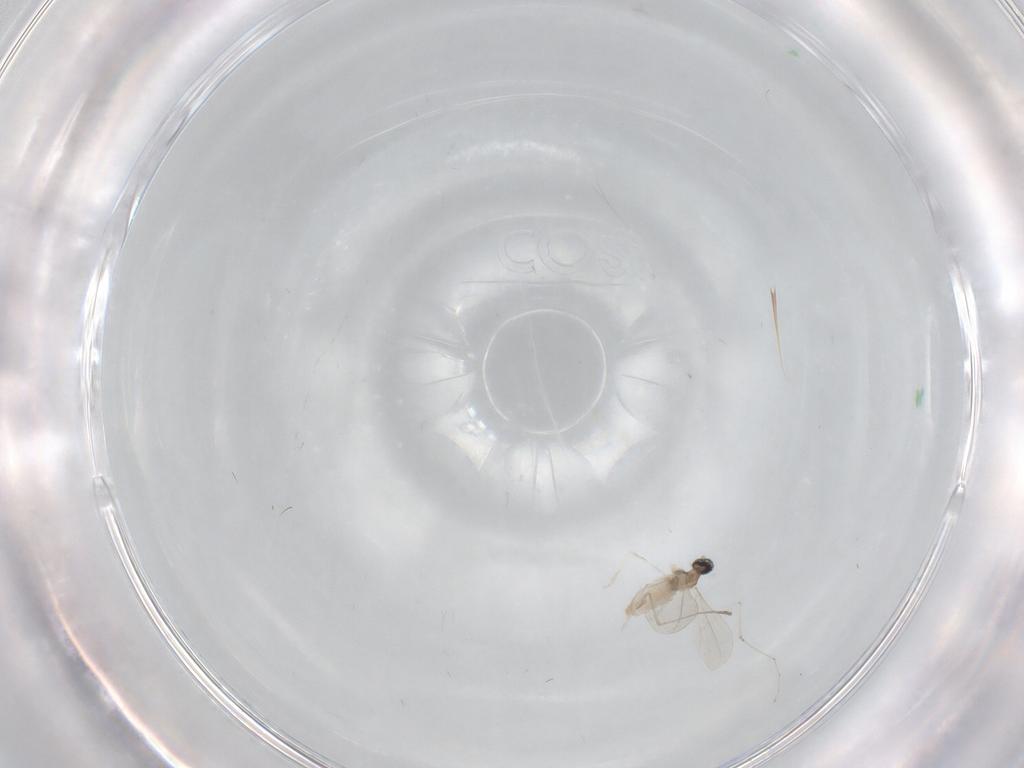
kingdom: Animalia
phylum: Arthropoda
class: Insecta
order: Diptera
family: Cecidomyiidae
